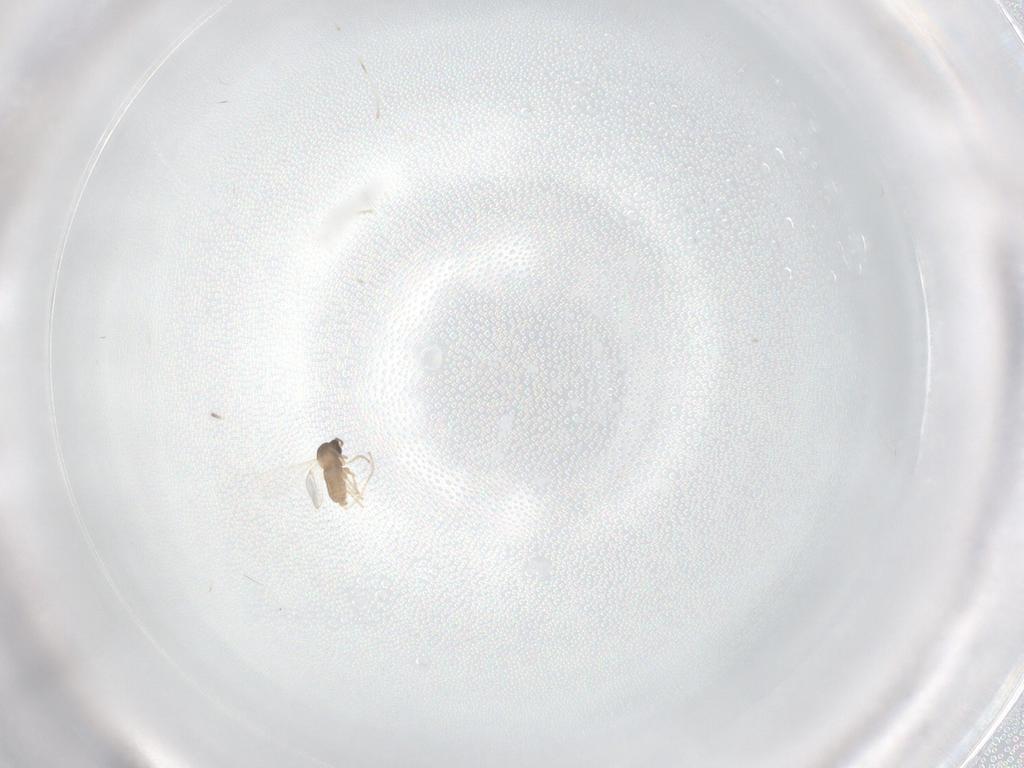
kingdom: Animalia
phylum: Arthropoda
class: Insecta
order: Diptera
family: Cecidomyiidae
